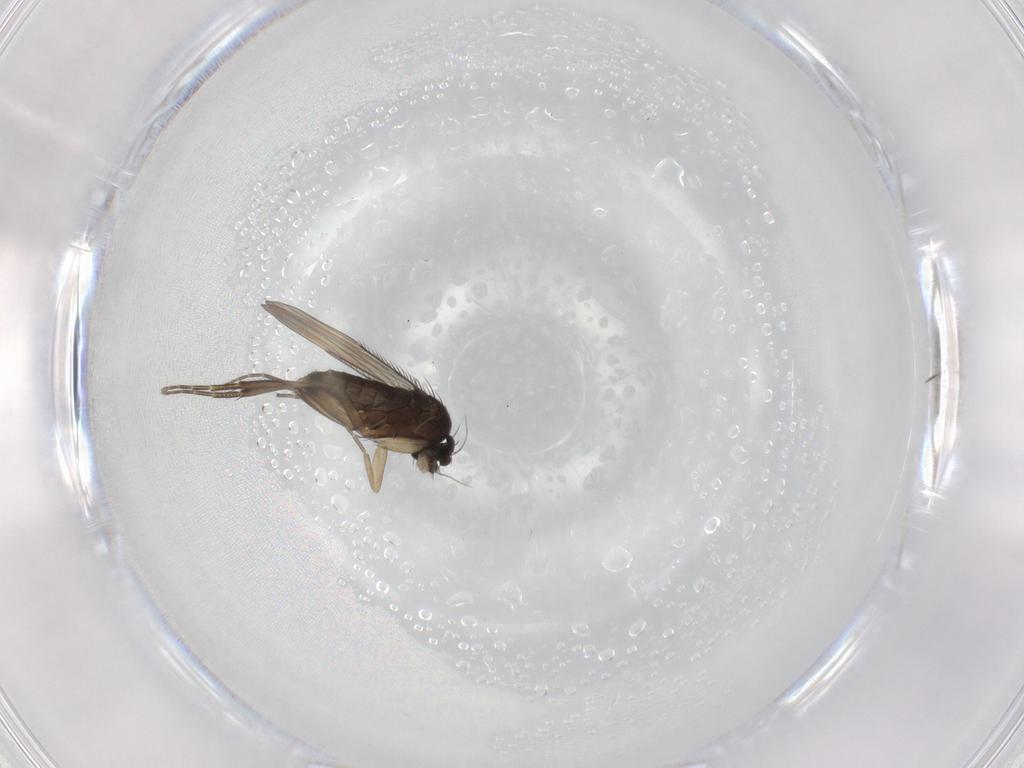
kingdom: Animalia
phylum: Arthropoda
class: Insecta
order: Diptera
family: Phoridae
